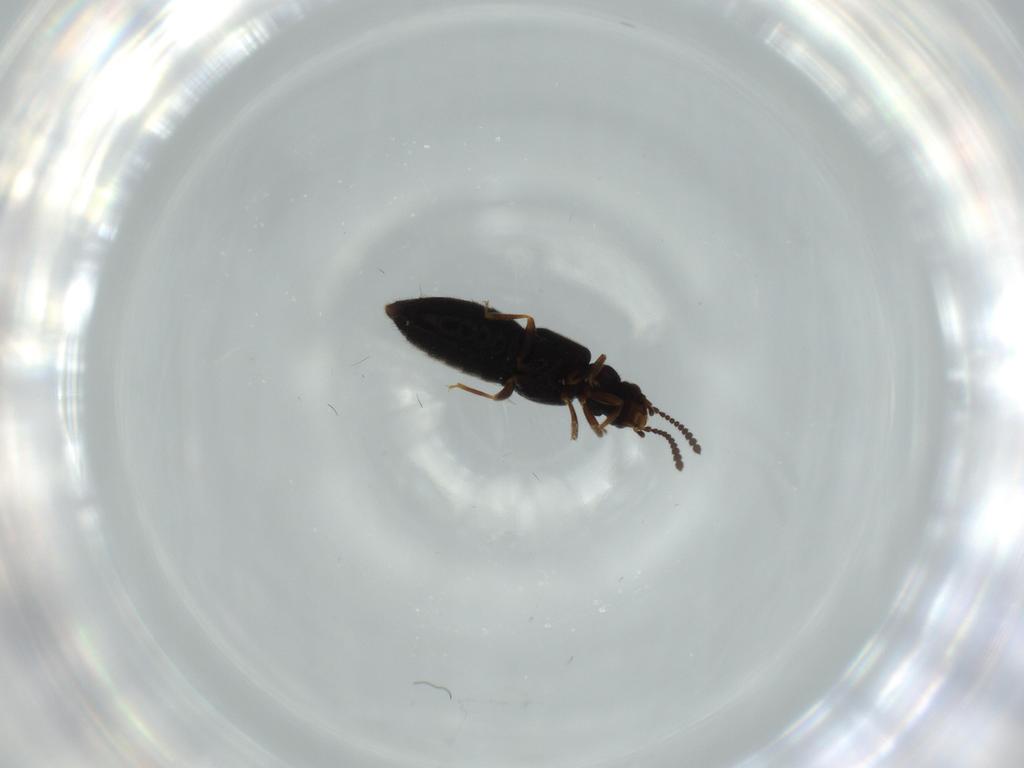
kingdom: Animalia
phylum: Arthropoda
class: Insecta
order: Coleoptera
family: Staphylinidae
